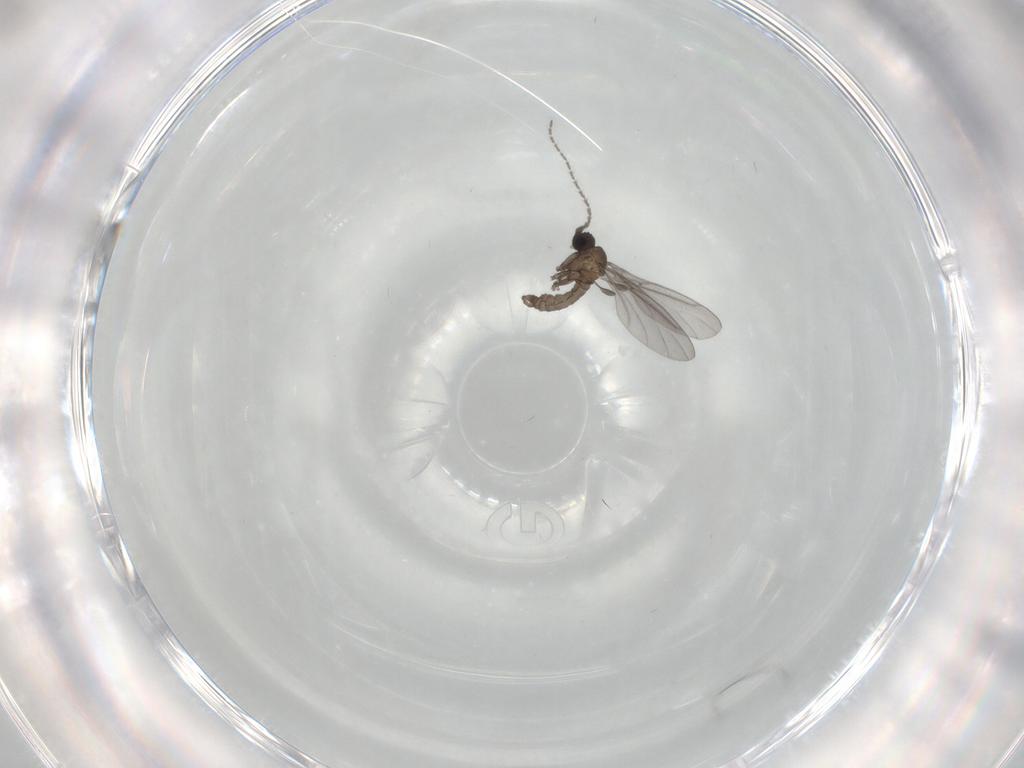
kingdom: Animalia
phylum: Arthropoda
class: Insecta
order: Diptera
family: Sciaridae
